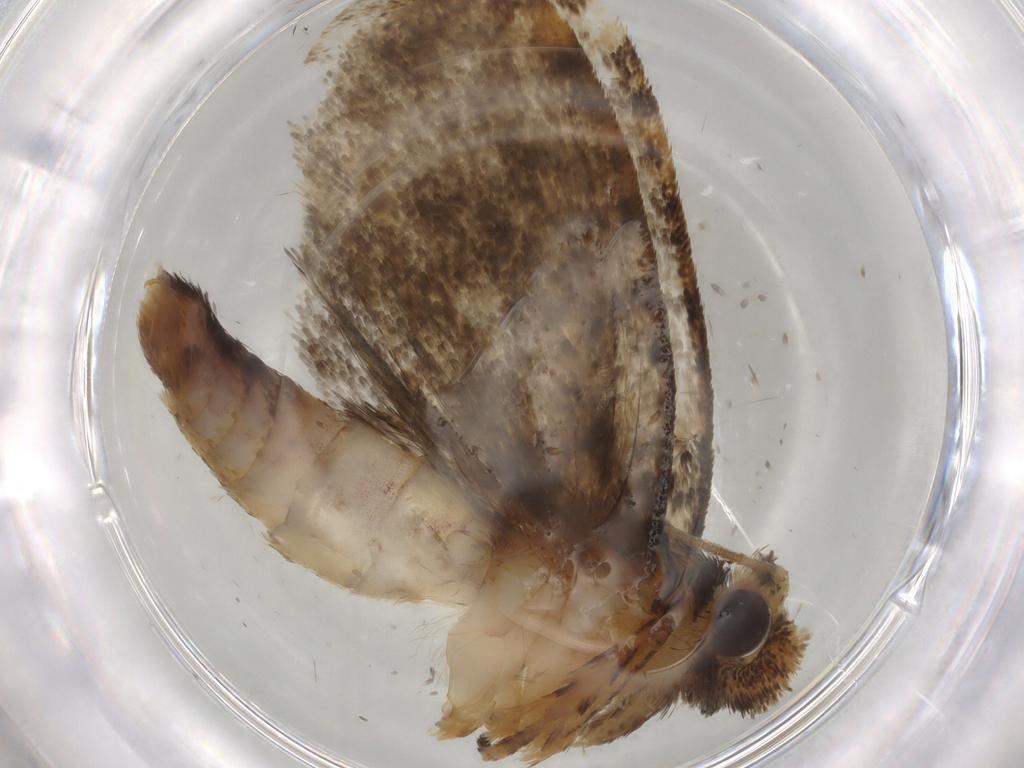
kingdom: Animalia
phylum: Arthropoda
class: Insecta
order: Lepidoptera
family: Tineidae
